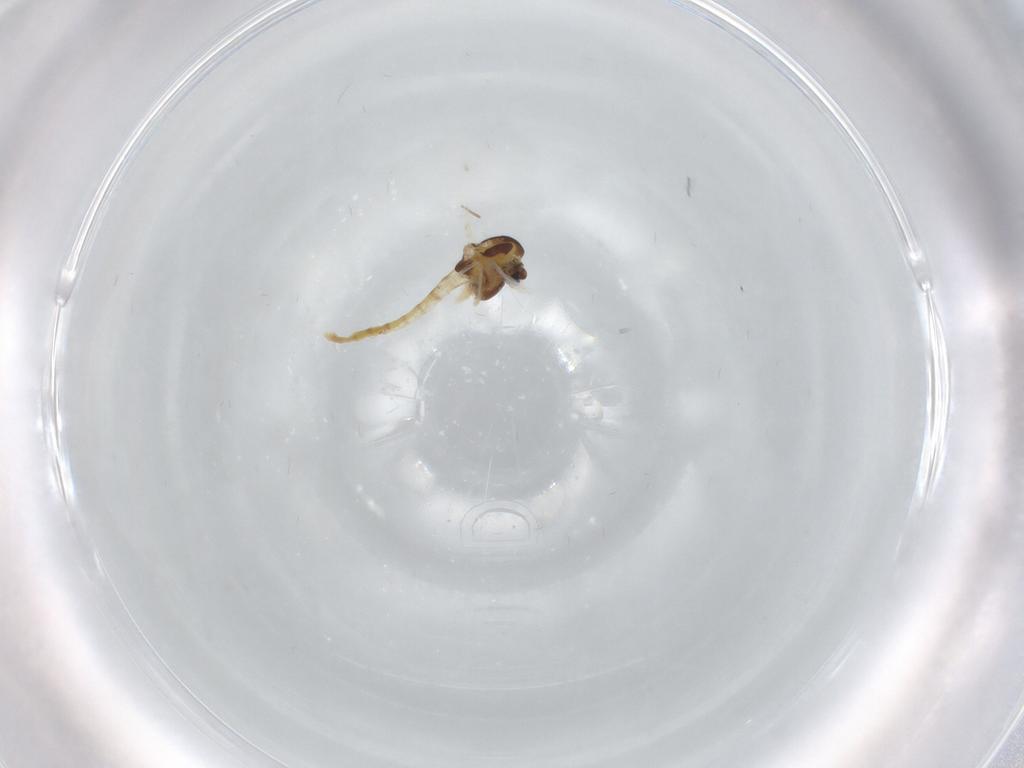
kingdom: Animalia
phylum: Arthropoda
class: Insecta
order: Diptera
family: Chironomidae
